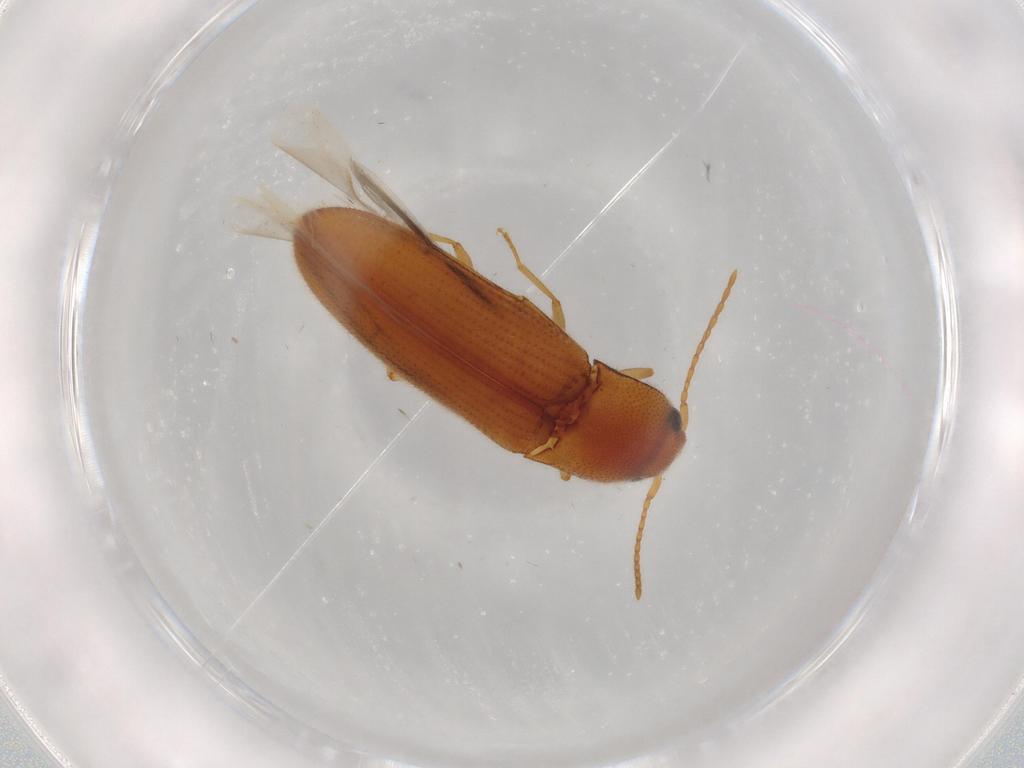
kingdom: Animalia
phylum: Arthropoda
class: Insecta
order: Coleoptera
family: Elateridae
